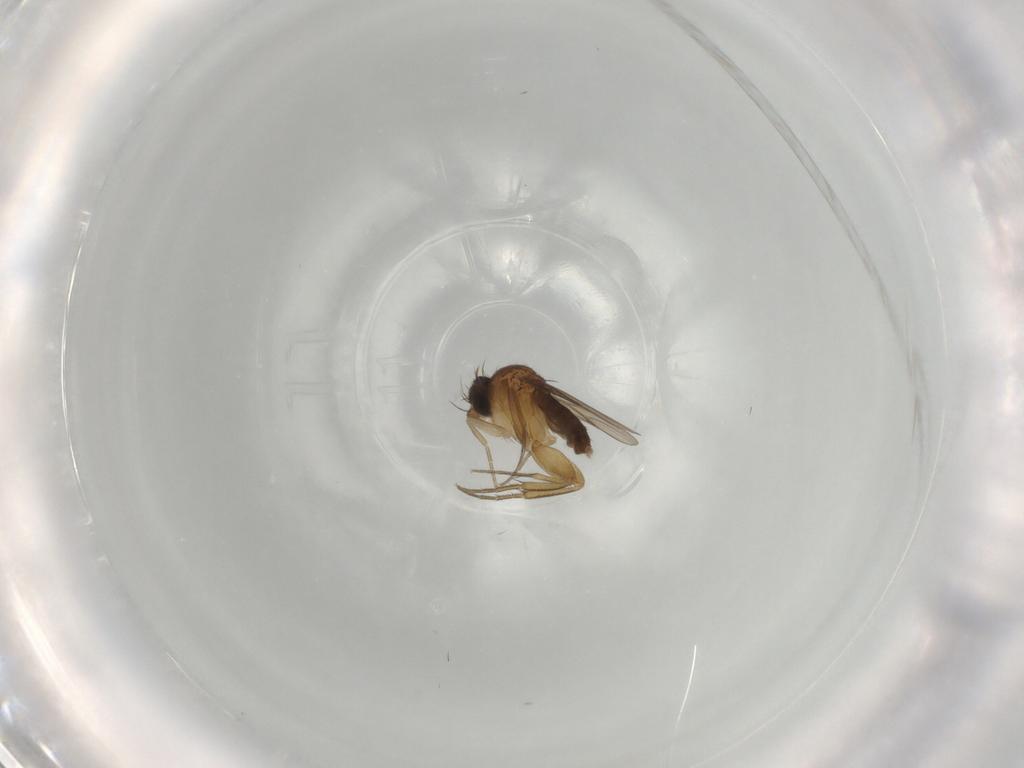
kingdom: Animalia
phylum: Arthropoda
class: Insecta
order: Diptera
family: Phoridae
